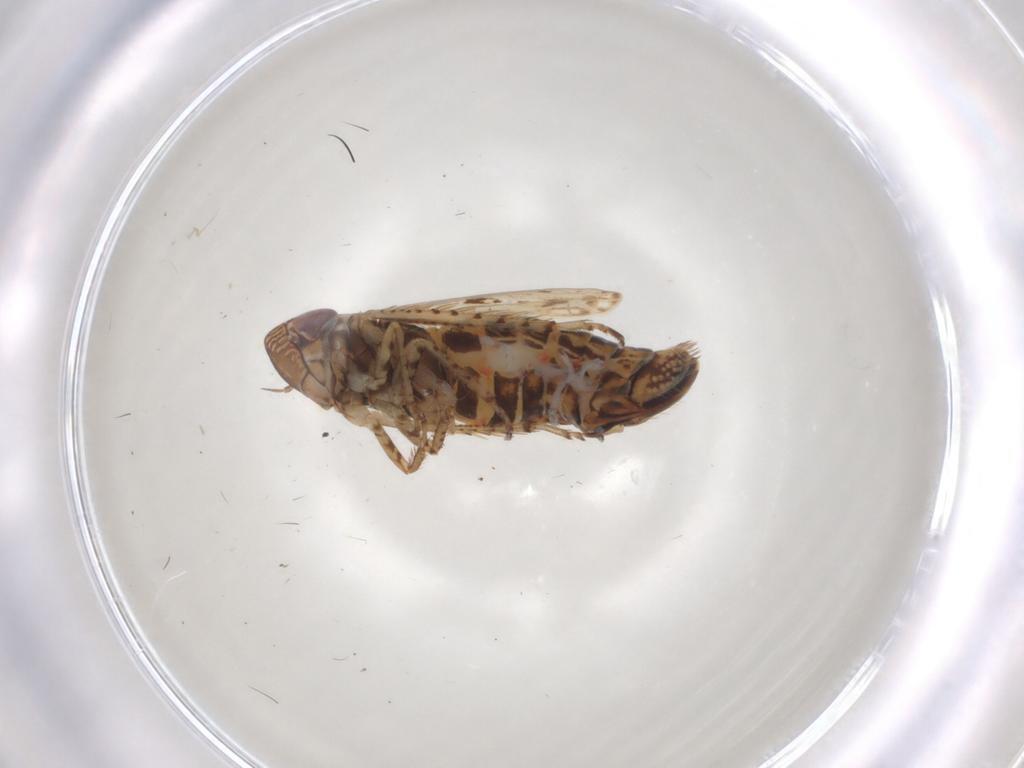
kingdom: Animalia
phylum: Arthropoda
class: Insecta
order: Hemiptera
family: Cicadellidae
